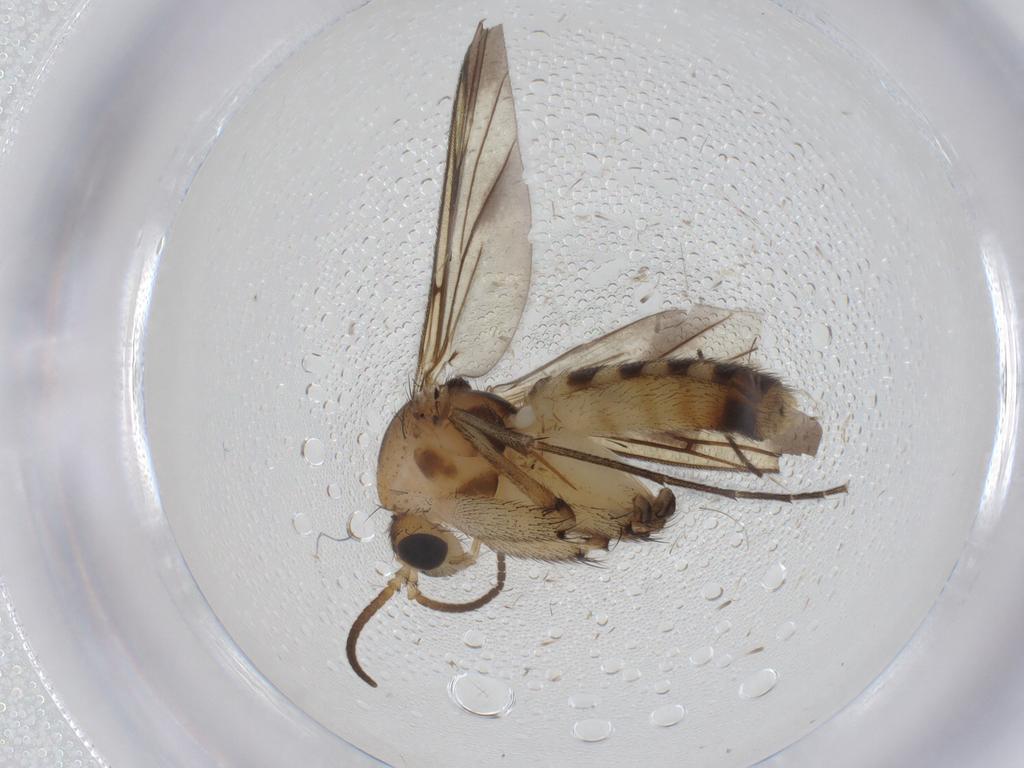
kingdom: Animalia
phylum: Arthropoda
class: Insecta
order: Diptera
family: Mycetophilidae
